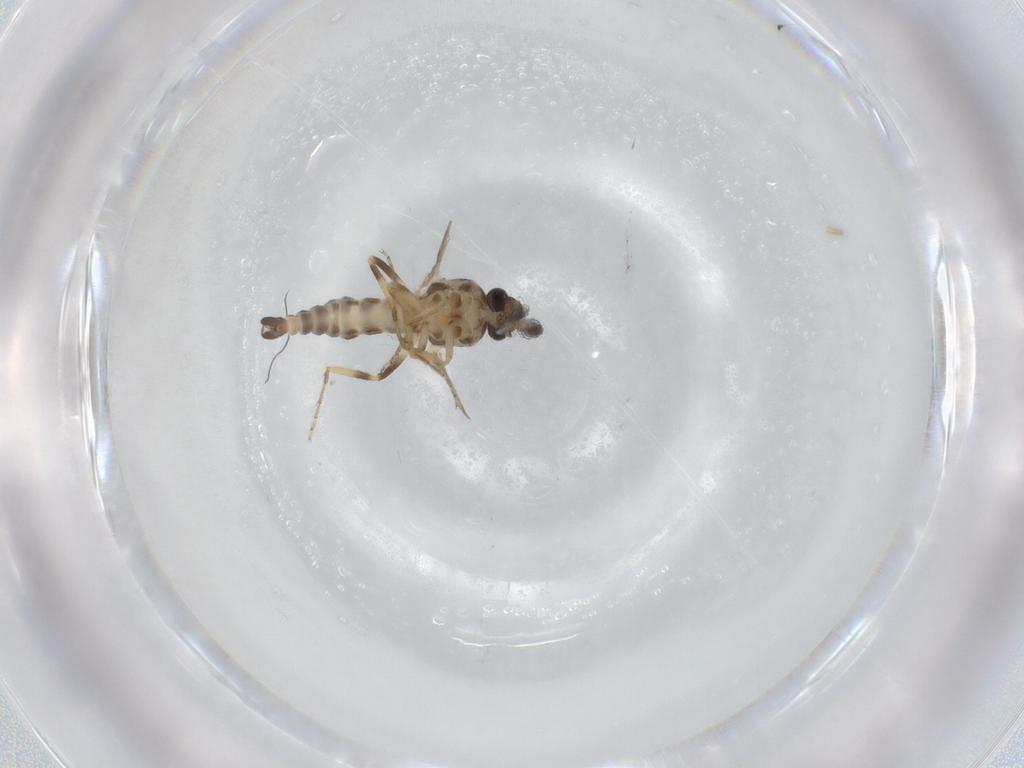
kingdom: Animalia
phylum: Arthropoda
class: Insecta
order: Diptera
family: Ceratopogonidae
